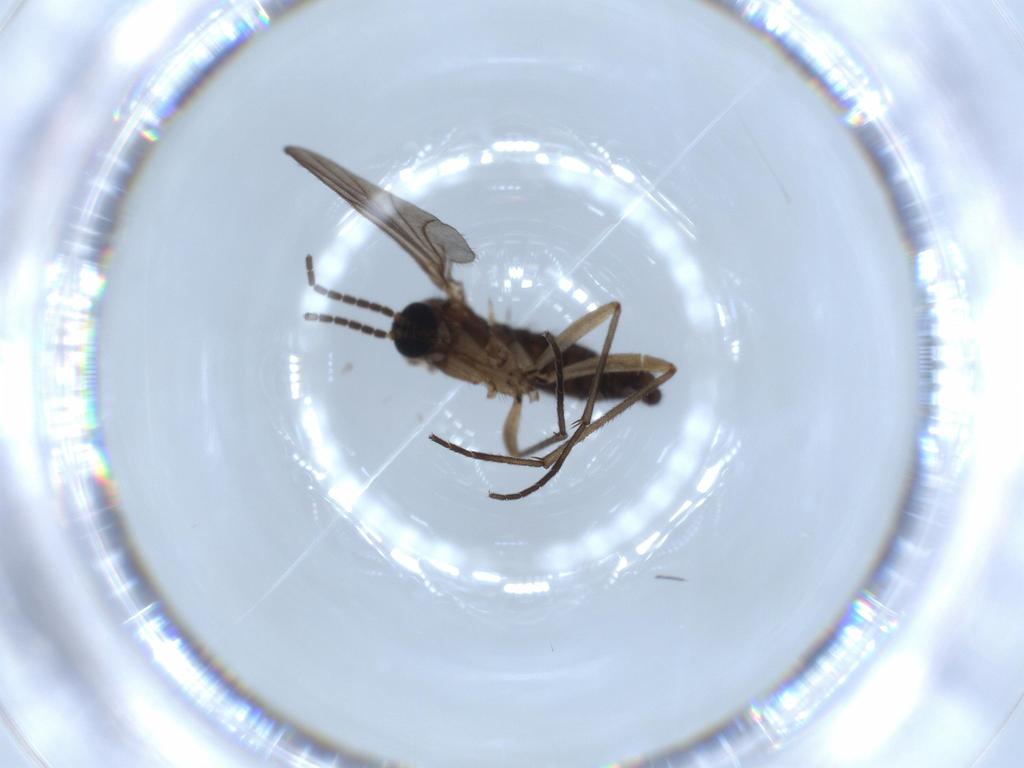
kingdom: Animalia
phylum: Arthropoda
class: Insecta
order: Diptera
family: Sciaridae
